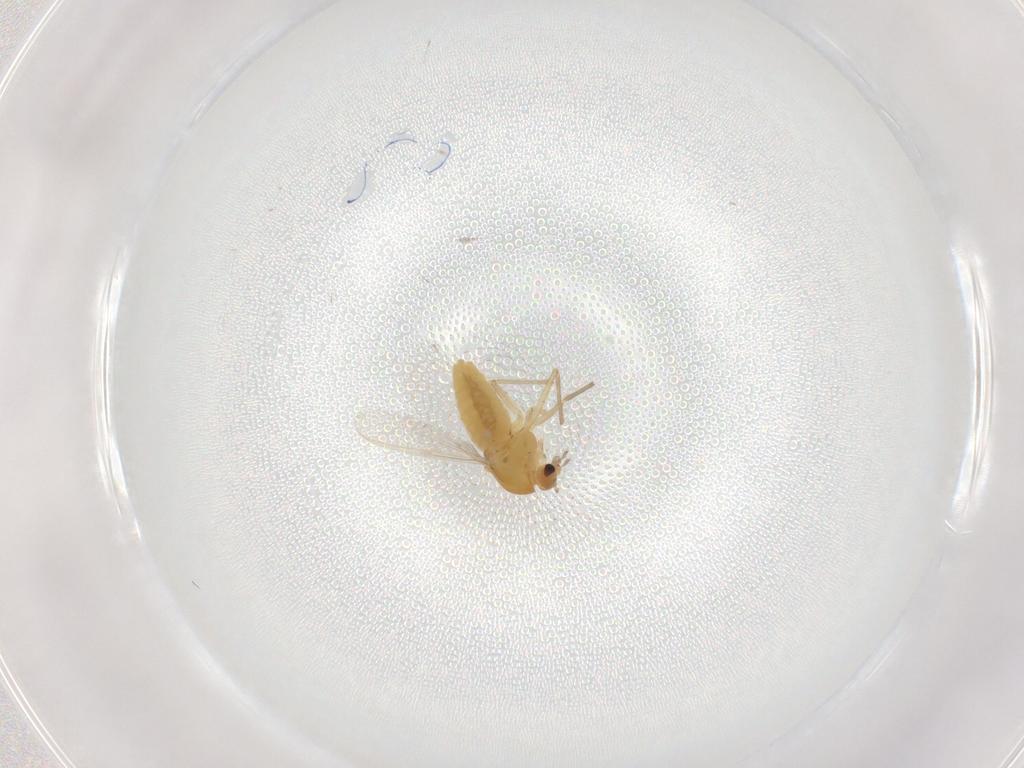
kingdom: Animalia
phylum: Arthropoda
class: Insecta
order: Diptera
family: Chironomidae
